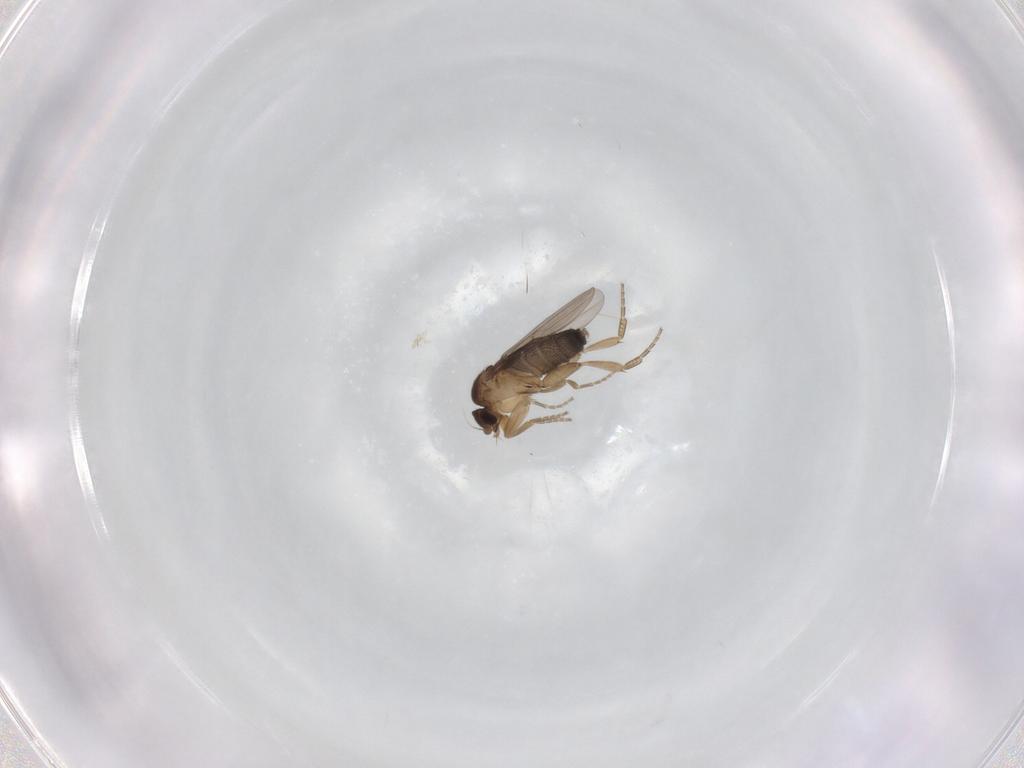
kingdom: Animalia
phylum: Arthropoda
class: Insecta
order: Diptera
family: Phoridae
